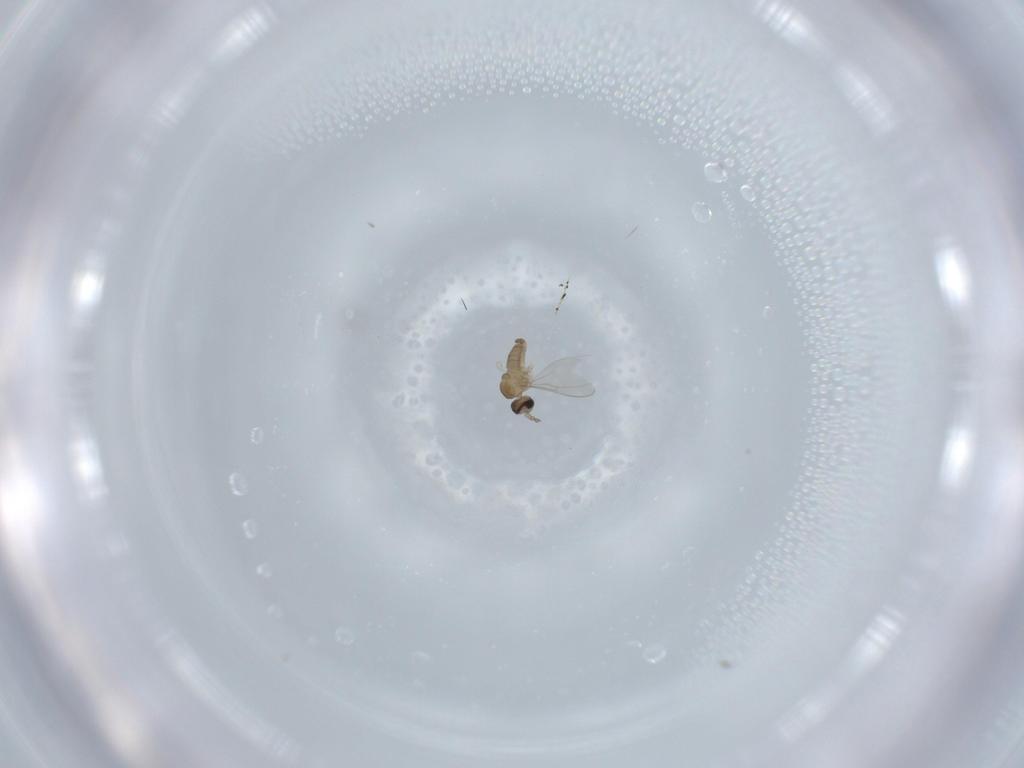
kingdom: Animalia
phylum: Arthropoda
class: Insecta
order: Diptera
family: Cecidomyiidae
